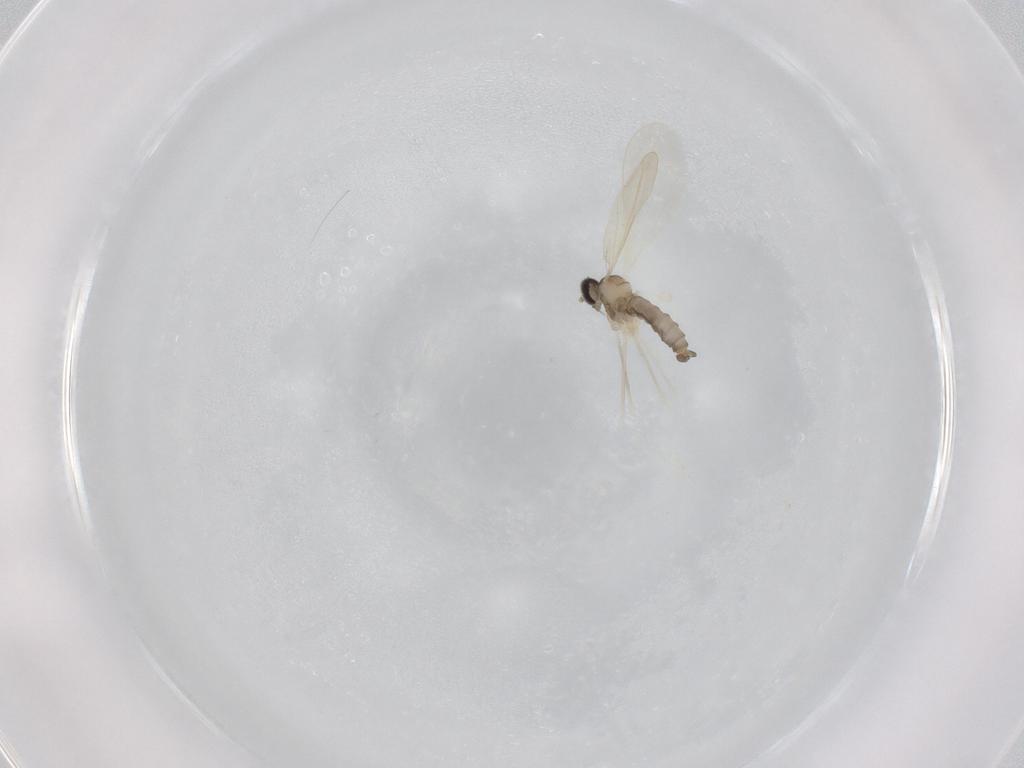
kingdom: Animalia
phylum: Arthropoda
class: Insecta
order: Diptera
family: Cecidomyiidae
